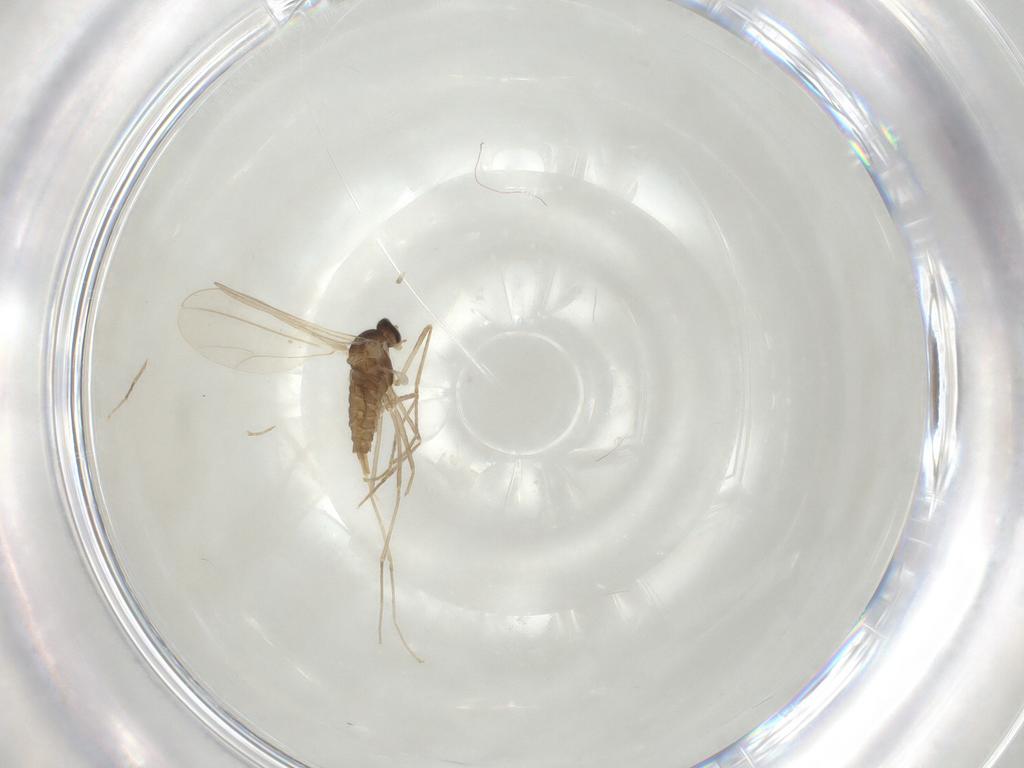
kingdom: Animalia
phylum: Arthropoda
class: Insecta
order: Diptera
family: Cecidomyiidae
